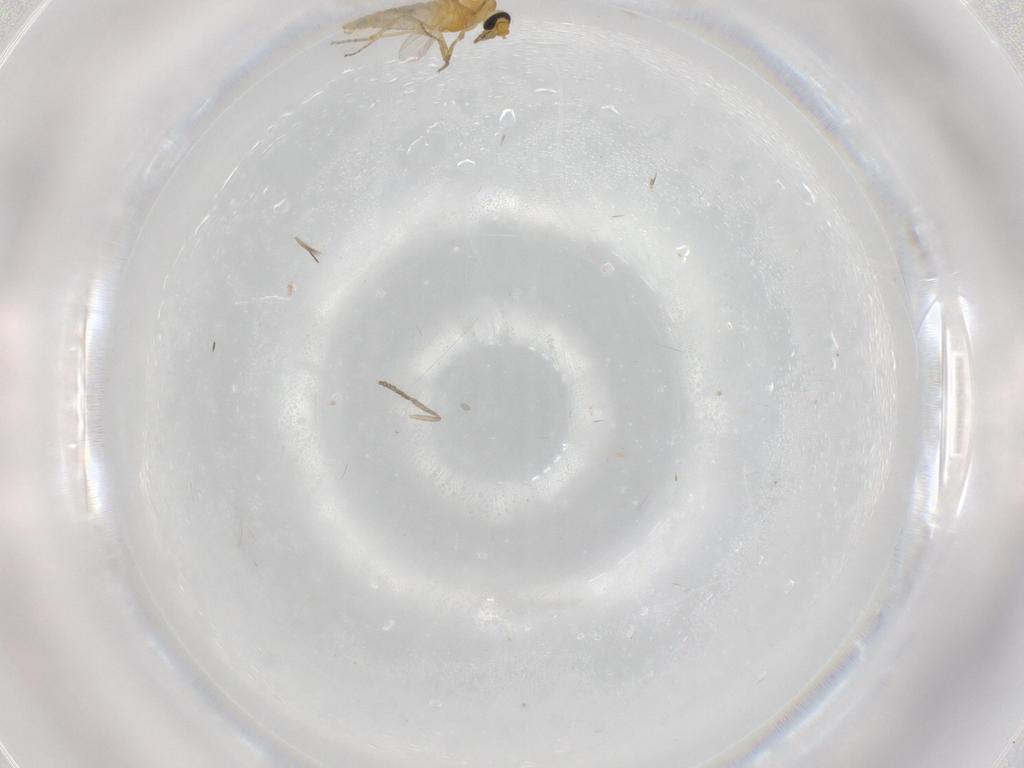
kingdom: Animalia
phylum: Arthropoda
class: Insecta
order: Diptera
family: Ceratopogonidae
